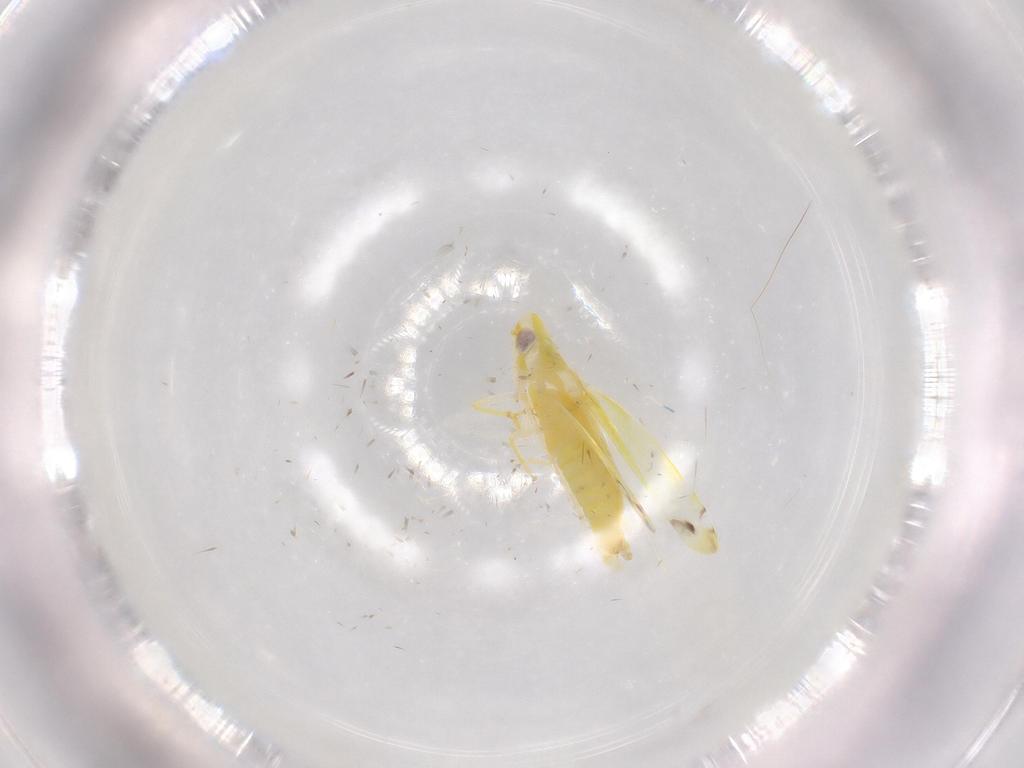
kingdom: Animalia
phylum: Arthropoda
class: Insecta
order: Hemiptera
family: Cicadellidae
